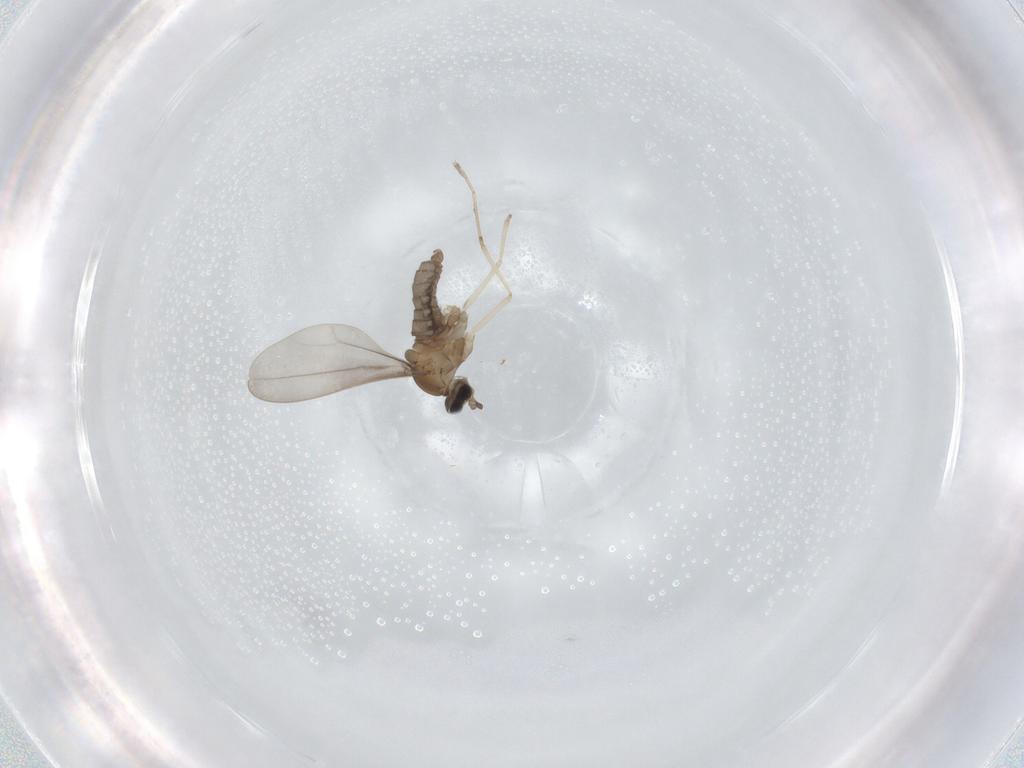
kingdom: Animalia
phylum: Arthropoda
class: Insecta
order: Diptera
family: Cecidomyiidae
